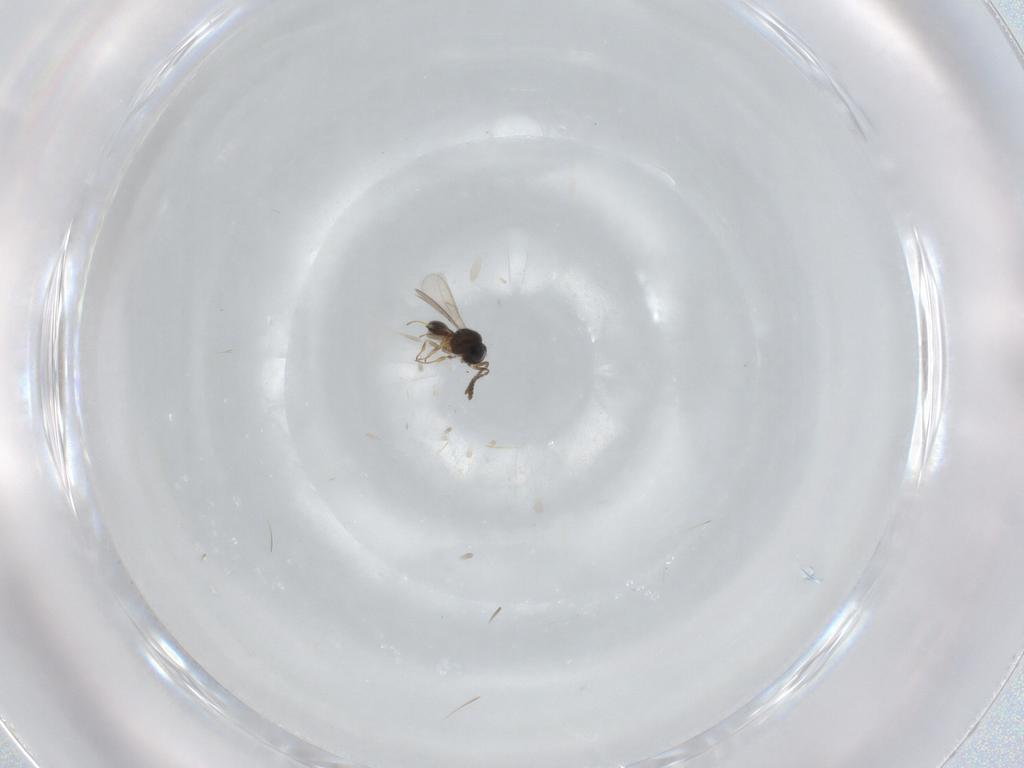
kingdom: Animalia
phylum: Arthropoda
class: Insecta
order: Hymenoptera
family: Scelionidae
